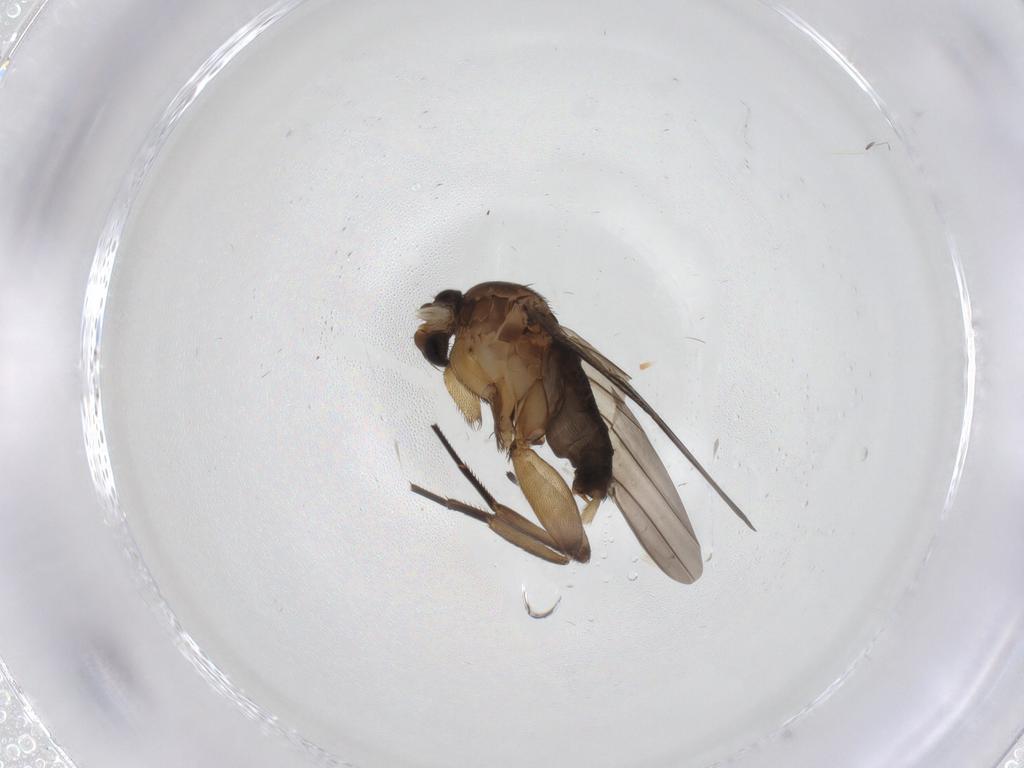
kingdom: Animalia
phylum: Arthropoda
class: Insecta
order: Diptera
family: Phoridae
